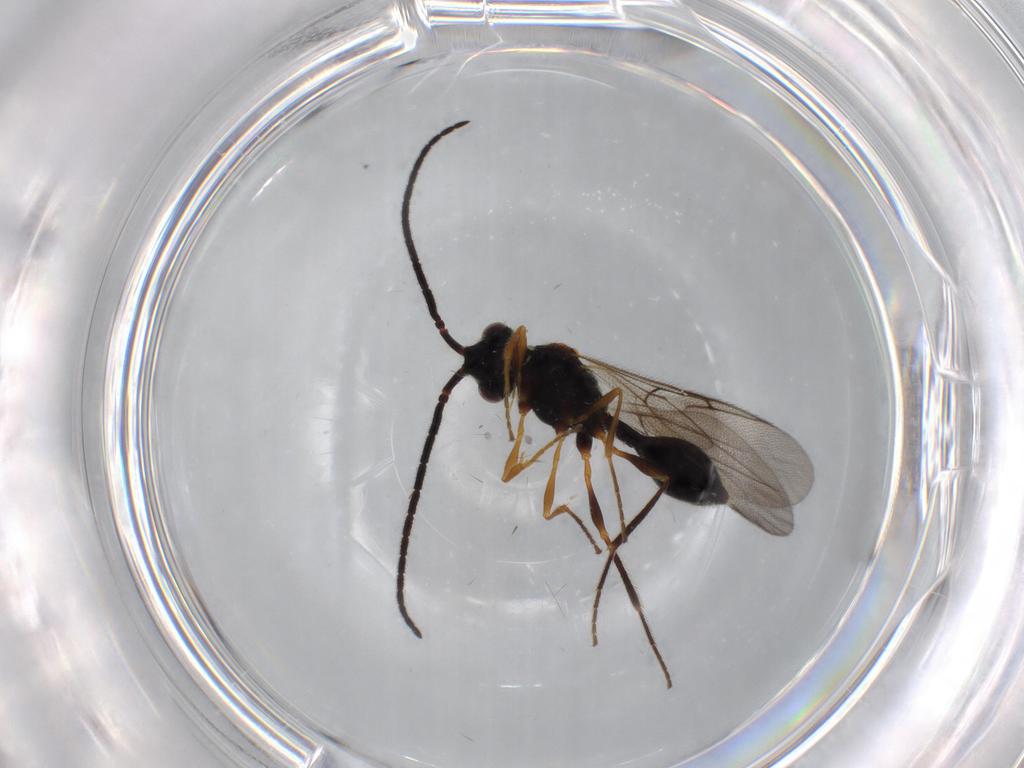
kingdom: Animalia
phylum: Arthropoda
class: Insecta
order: Hymenoptera
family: Diapriidae
